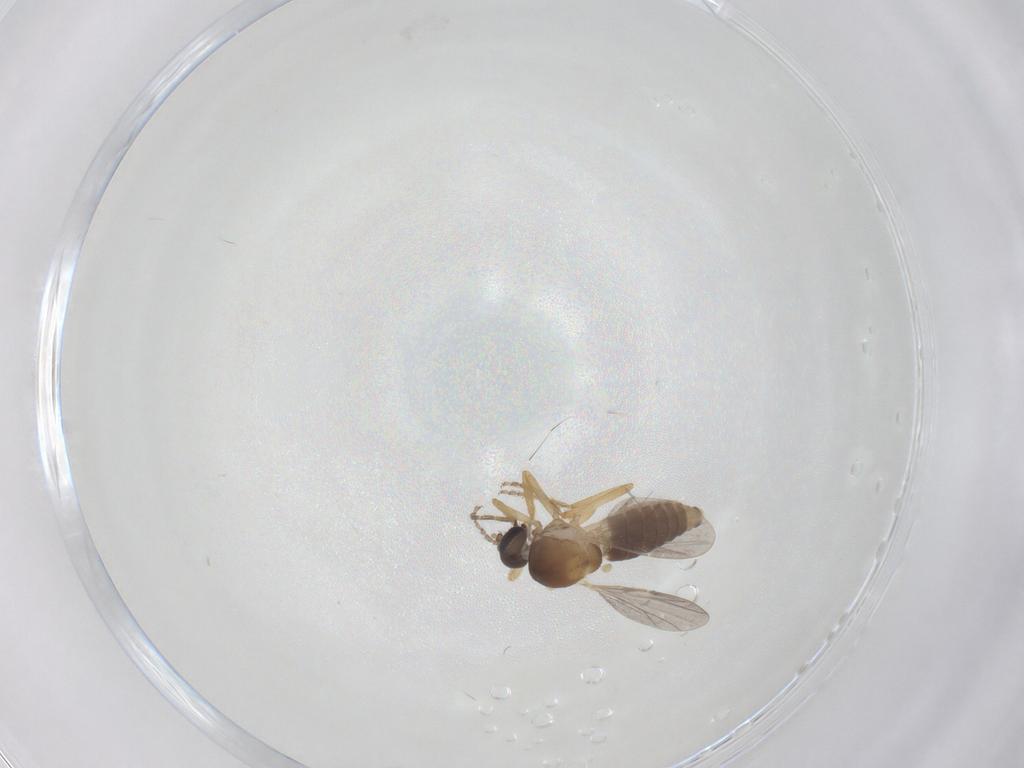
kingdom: Animalia
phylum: Arthropoda
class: Insecta
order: Diptera
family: Ceratopogonidae
